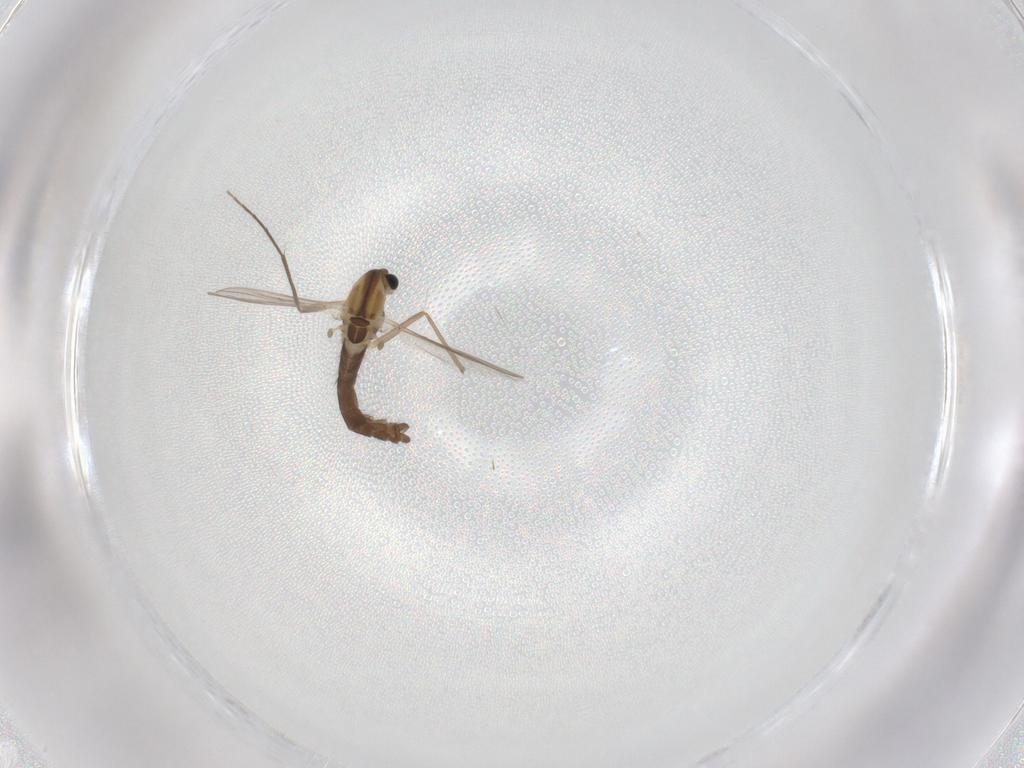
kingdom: Animalia
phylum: Arthropoda
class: Insecta
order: Diptera
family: Chironomidae
